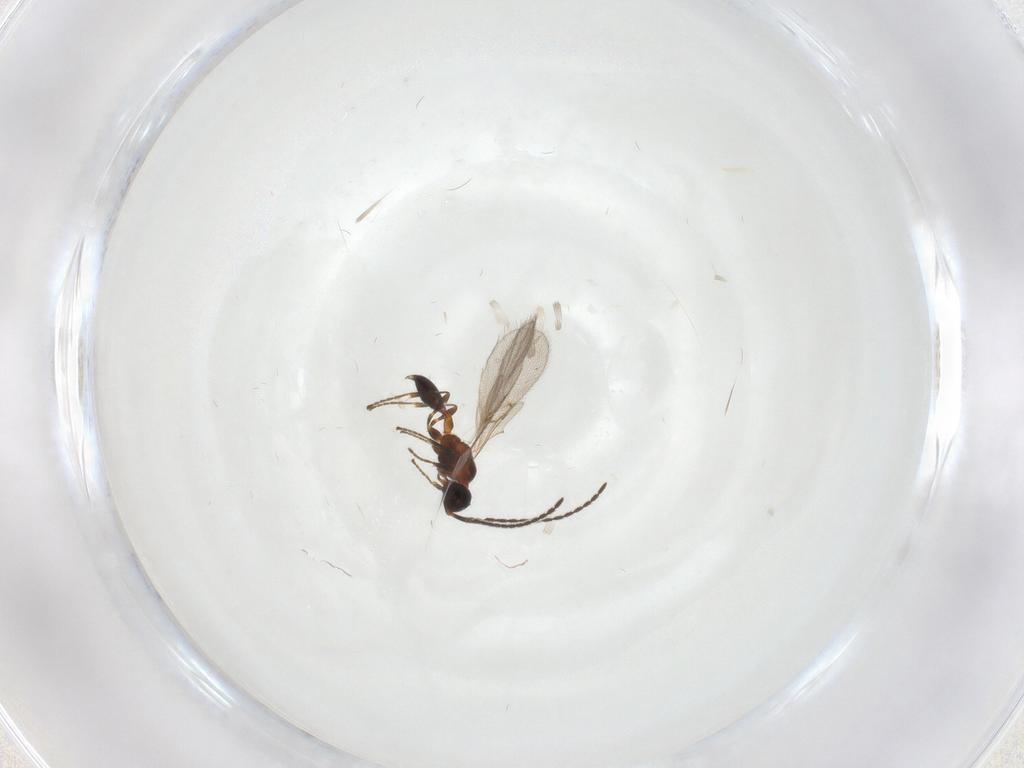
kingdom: Animalia
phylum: Arthropoda
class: Insecta
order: Hymenoptera
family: Diapriidae
